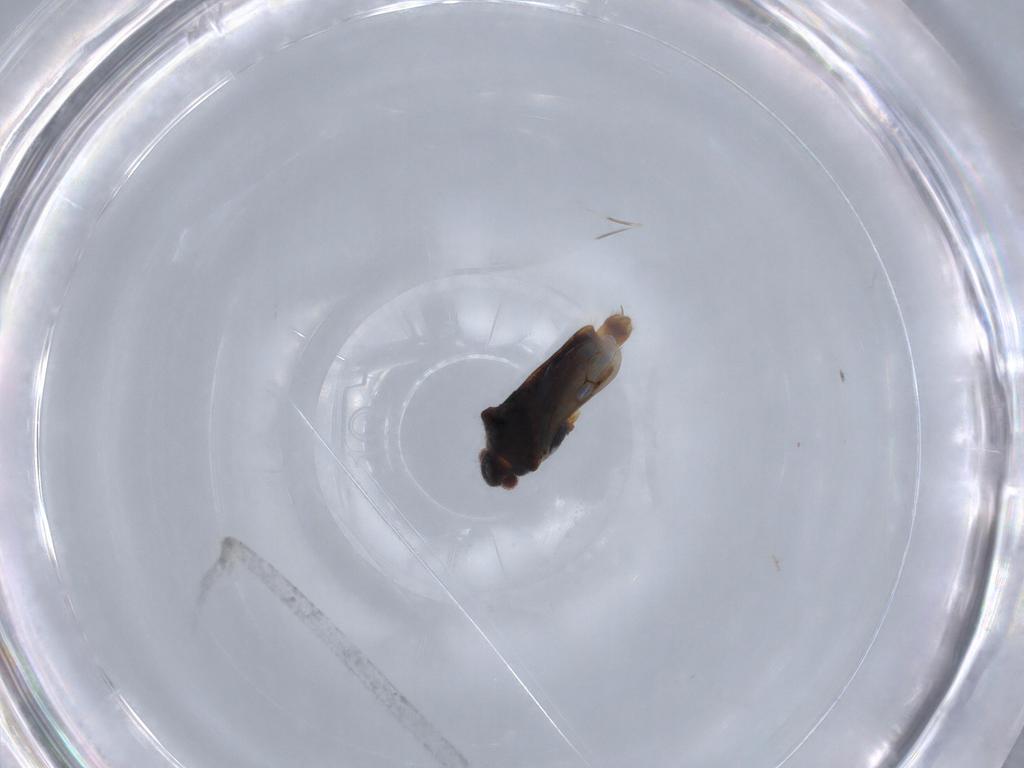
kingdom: Animalia
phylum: Arthropoda
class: Insecta
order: Hemiptera
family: Veliidae
